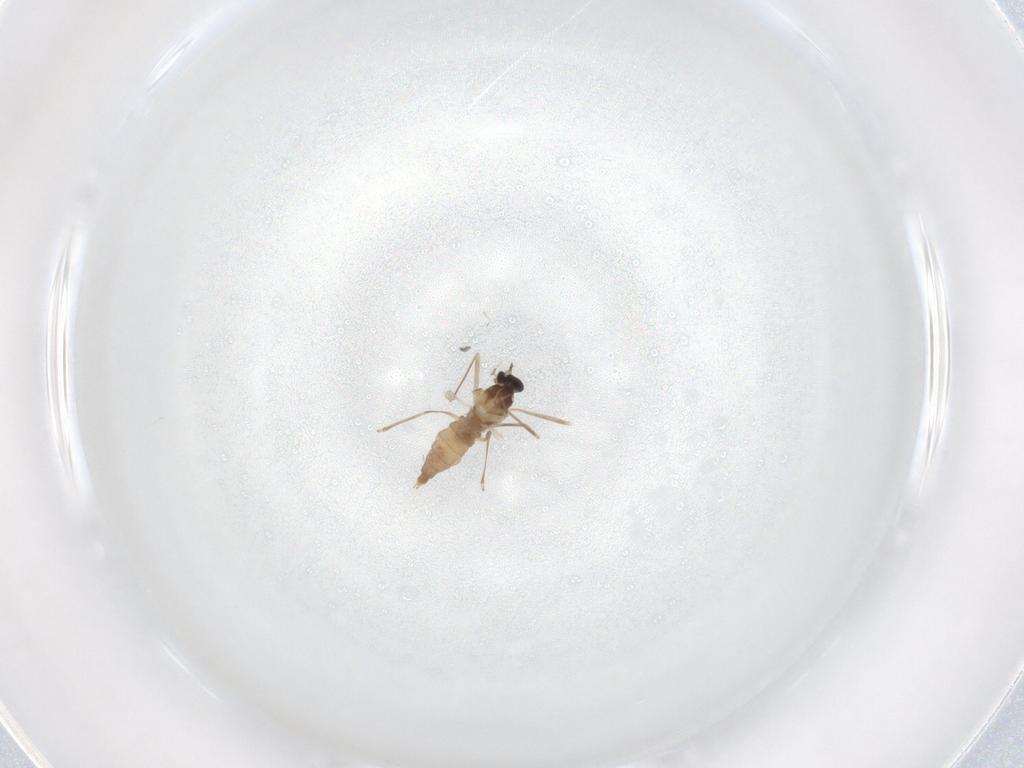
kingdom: Animalia
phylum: Arthropoda
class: Insecta
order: Diptera
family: Cecidomyiidae
